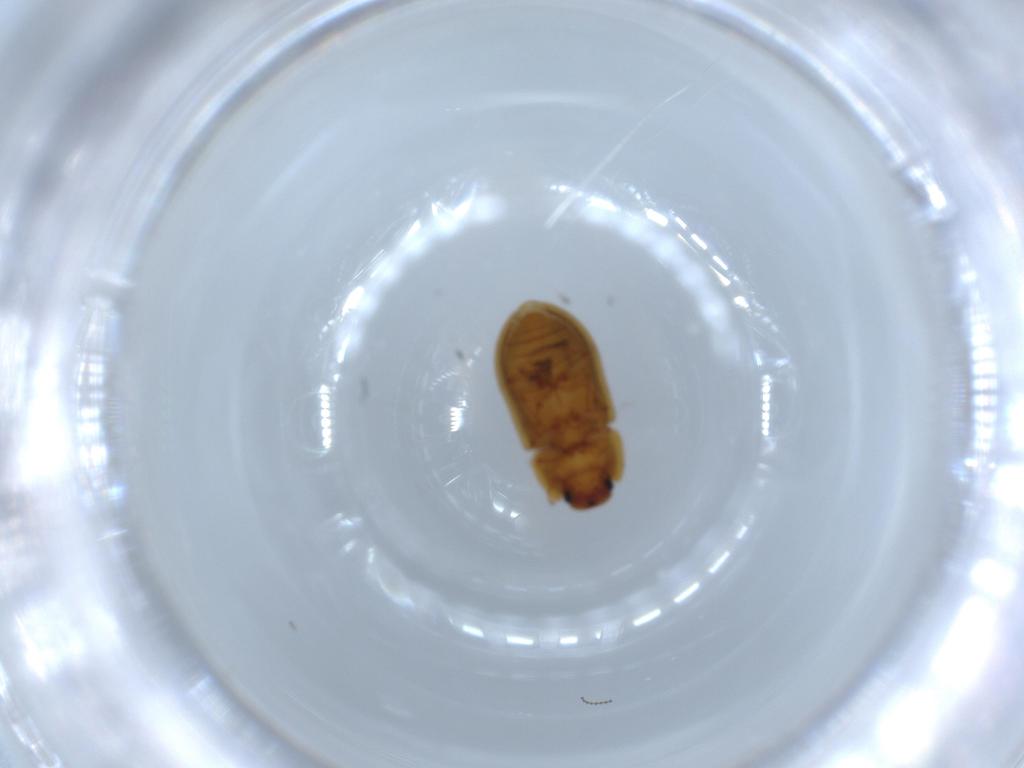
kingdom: Animalia
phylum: Arthropoda
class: Insecta
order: Coleoptera
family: Zopheridae
